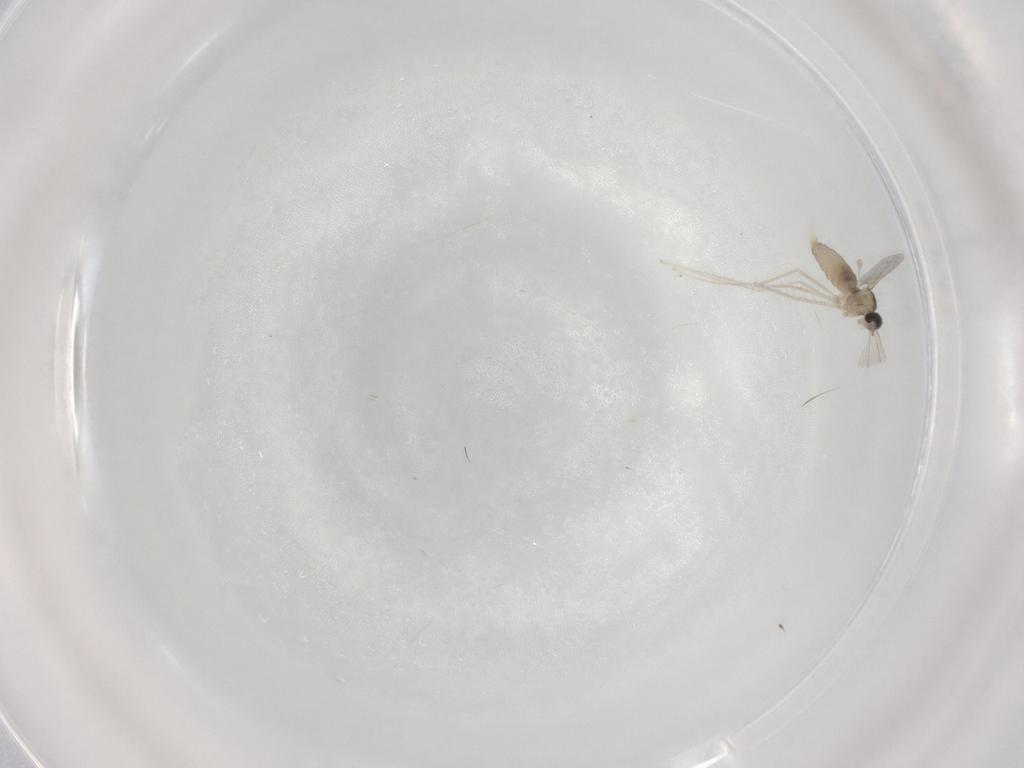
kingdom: Animalia
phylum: Arthropoda
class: Insecta
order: Diptera
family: Cecidomyiidae
